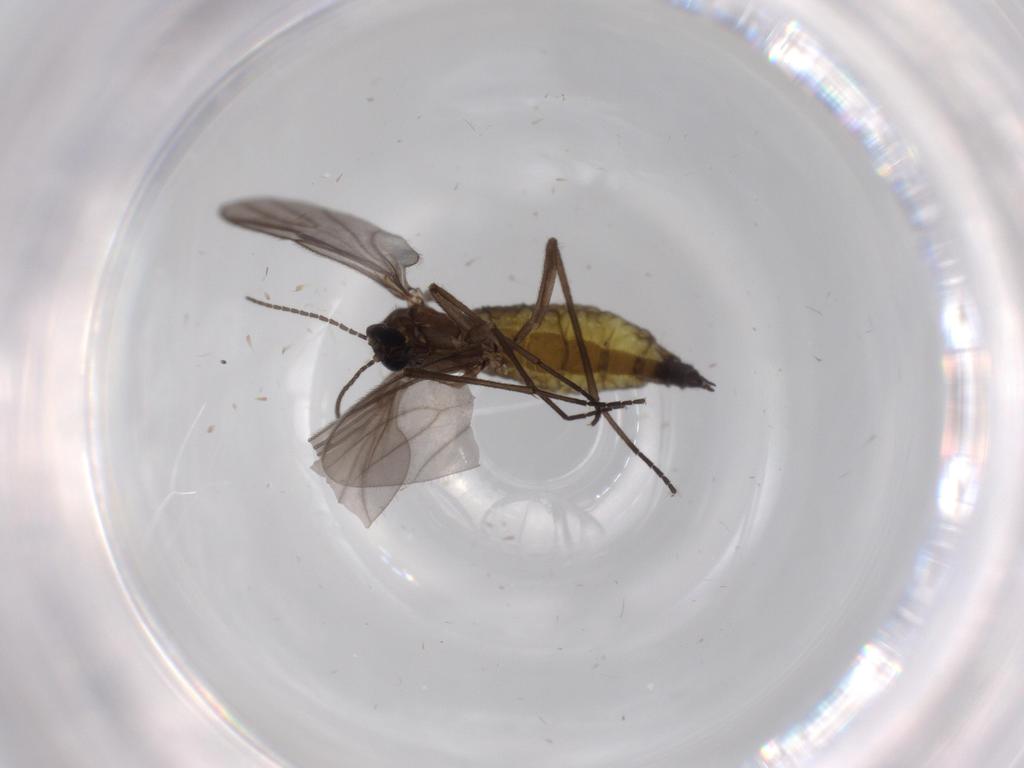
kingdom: Animalia
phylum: Arthropoda
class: Insecta
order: Diptera
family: Sciaridae
